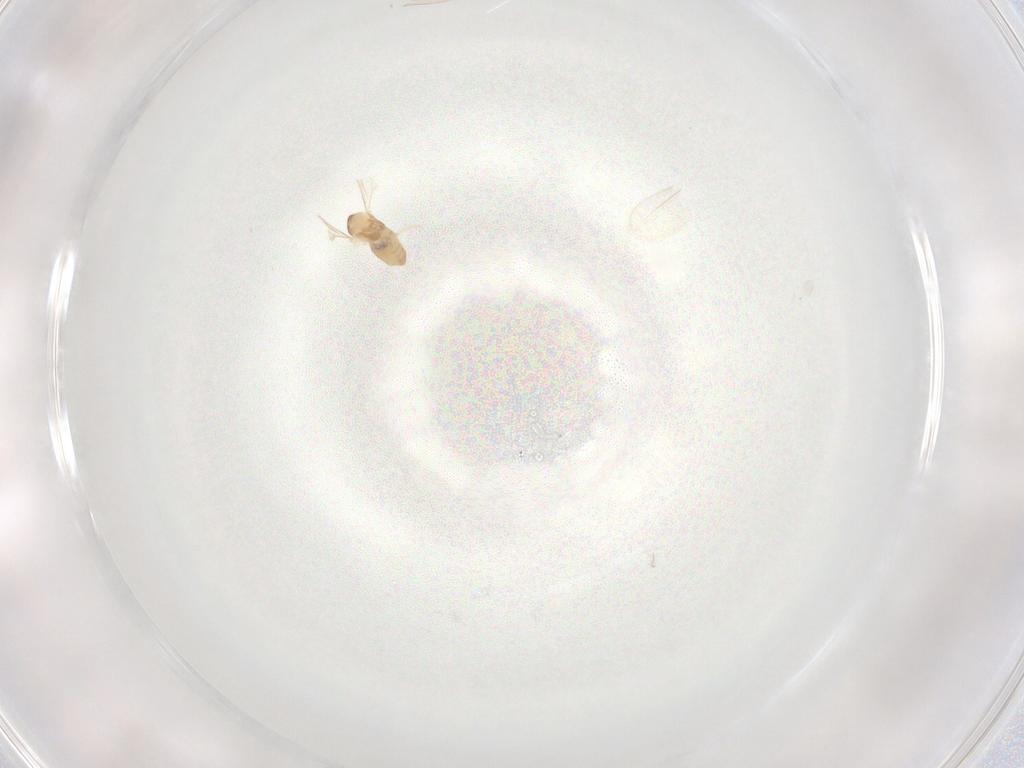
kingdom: Animalia
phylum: Arthropoda
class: Insecta
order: Diptera
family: Cecidomyiidae
